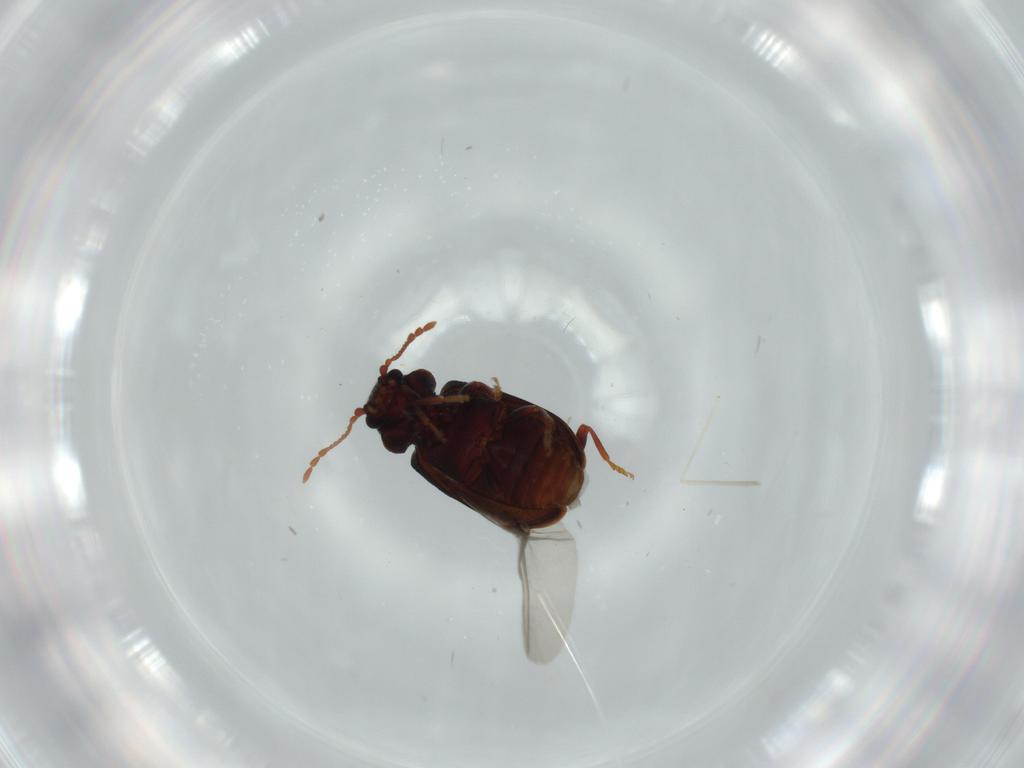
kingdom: Animalia
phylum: Arthropoda
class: Insecta
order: Coleoptera
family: Ptinidae
